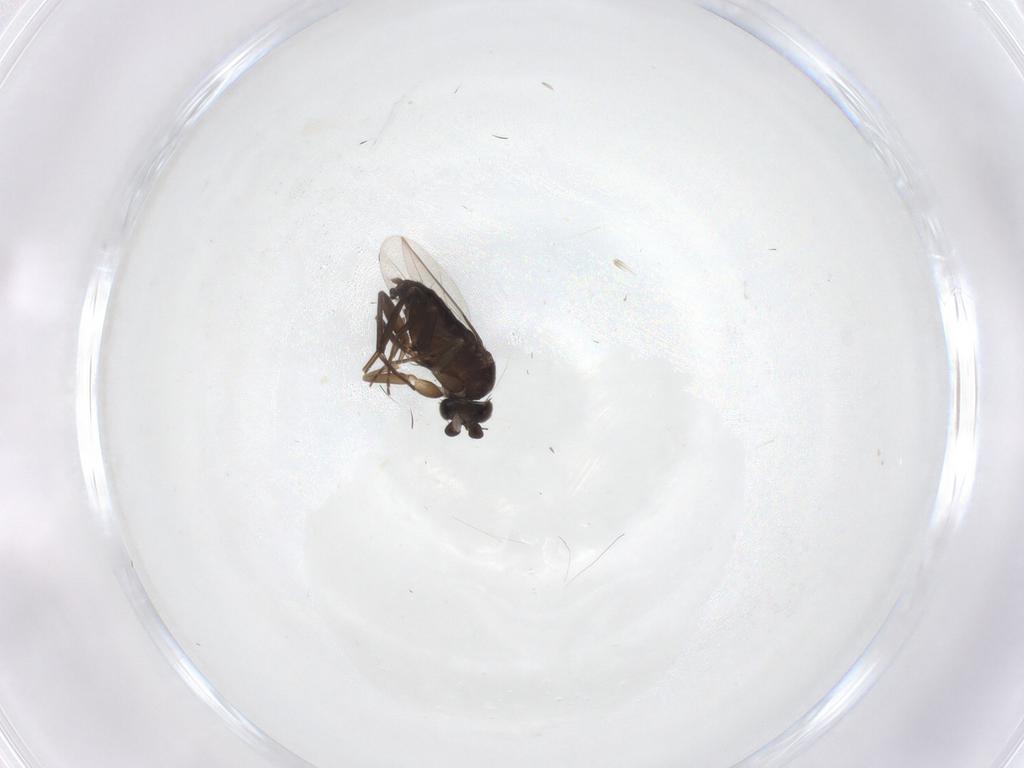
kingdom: Animalia
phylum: Arthropoda
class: Insecta
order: Diptera
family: Phoridae
